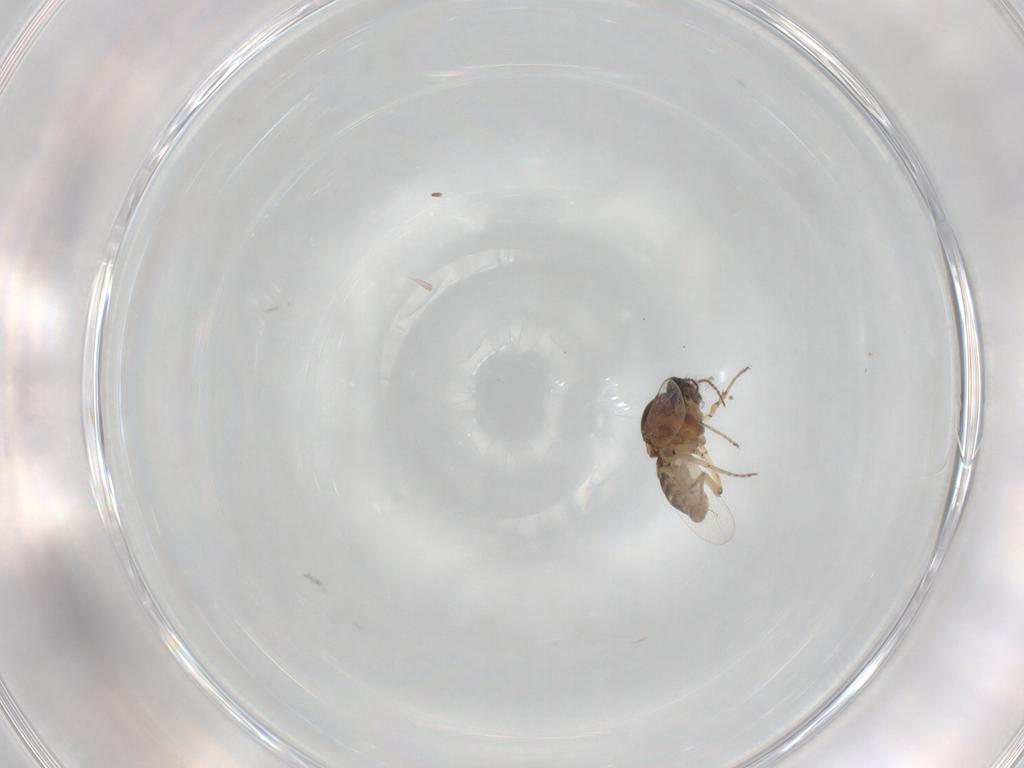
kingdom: Animalia
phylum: Arthropoda
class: Insecta
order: Diptera
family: Ceratopogonidae
